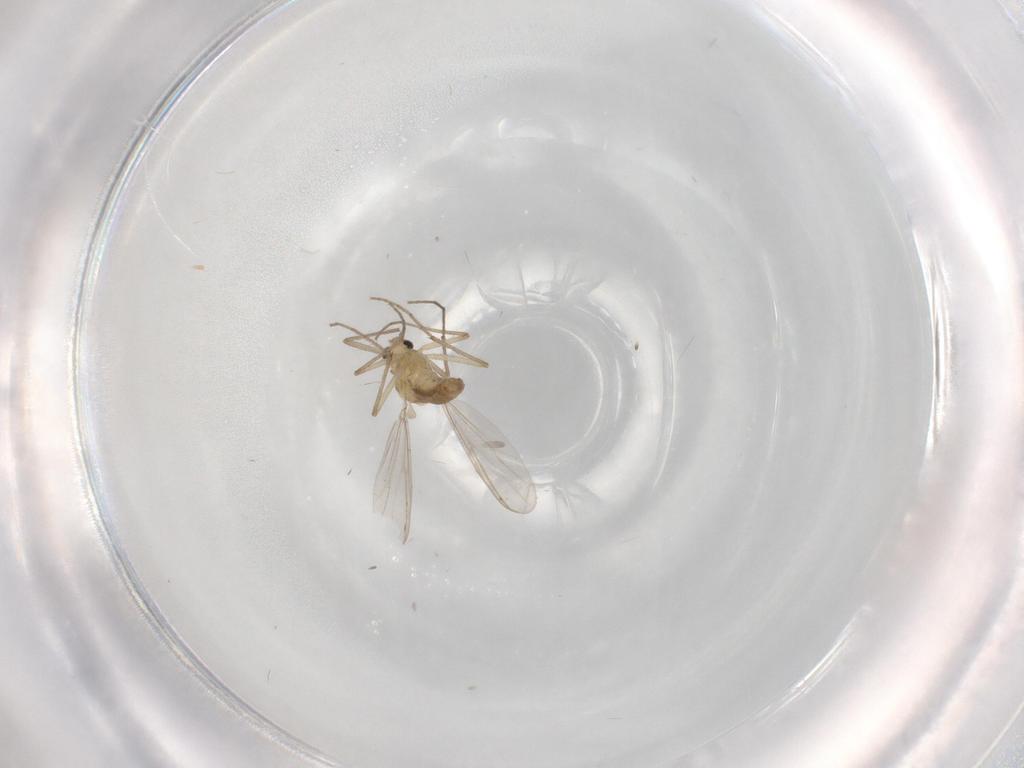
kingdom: Animalia
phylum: Arthropoda
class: Insecta
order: Diptera
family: Chironomidae
